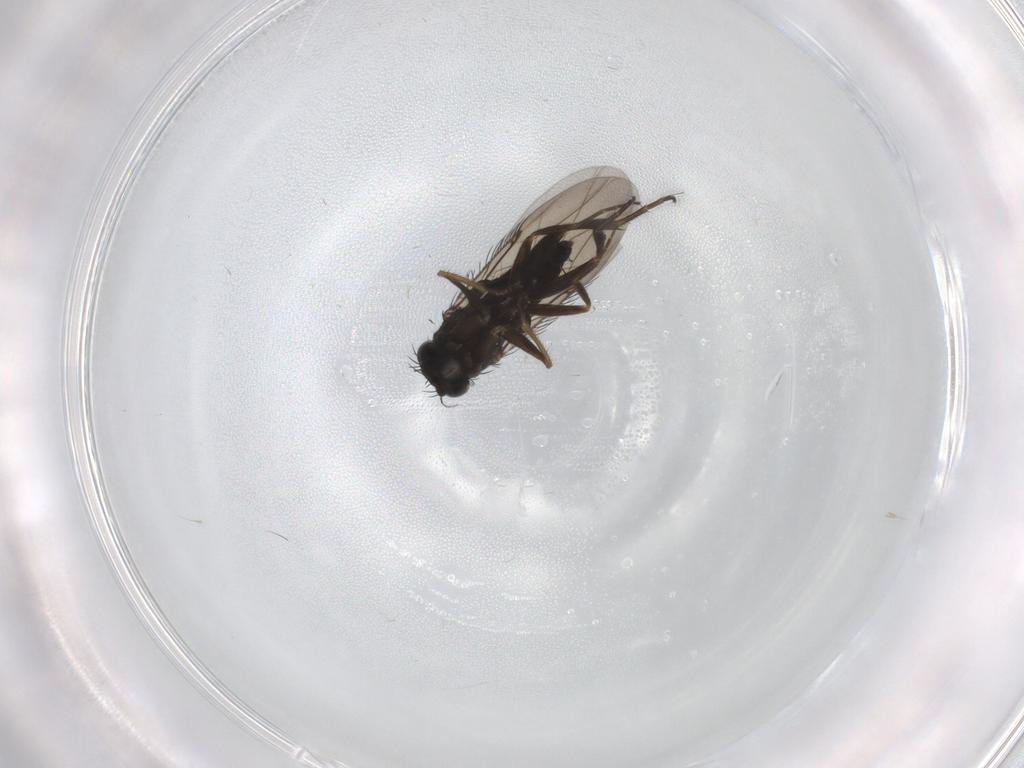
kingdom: Animalia
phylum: Arthropoda
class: Insecta
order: Diptera
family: Phoridae
